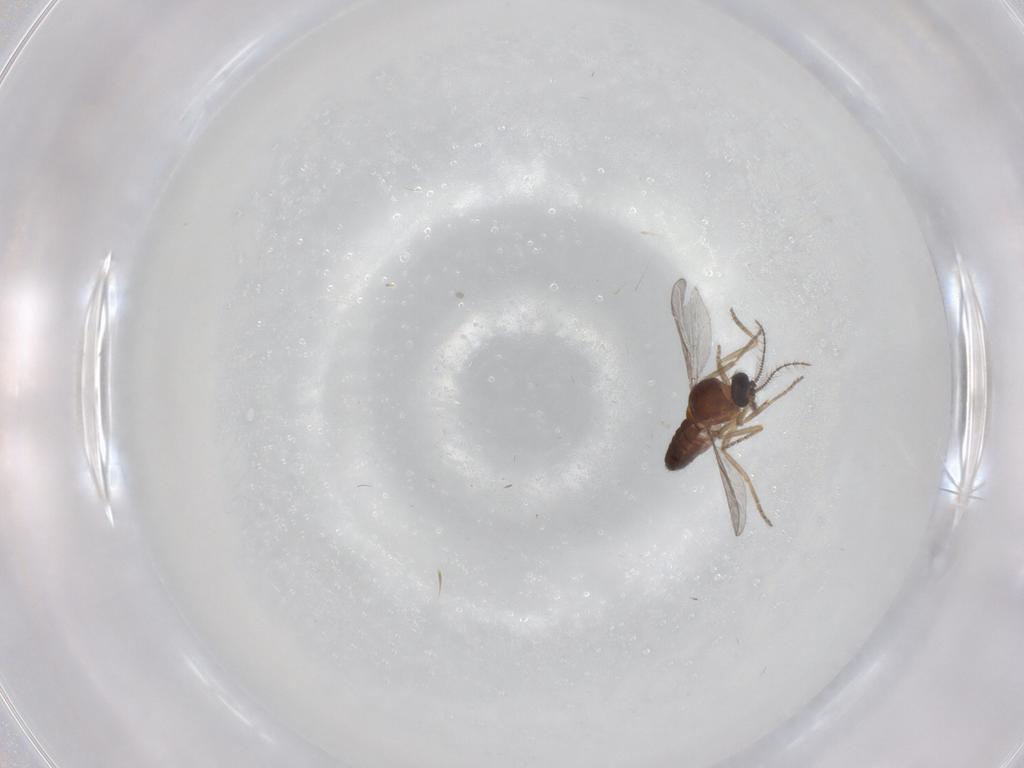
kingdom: Animalia
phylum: Arthropoda
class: Insecta
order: Diptera
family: Ceratopogonidae
